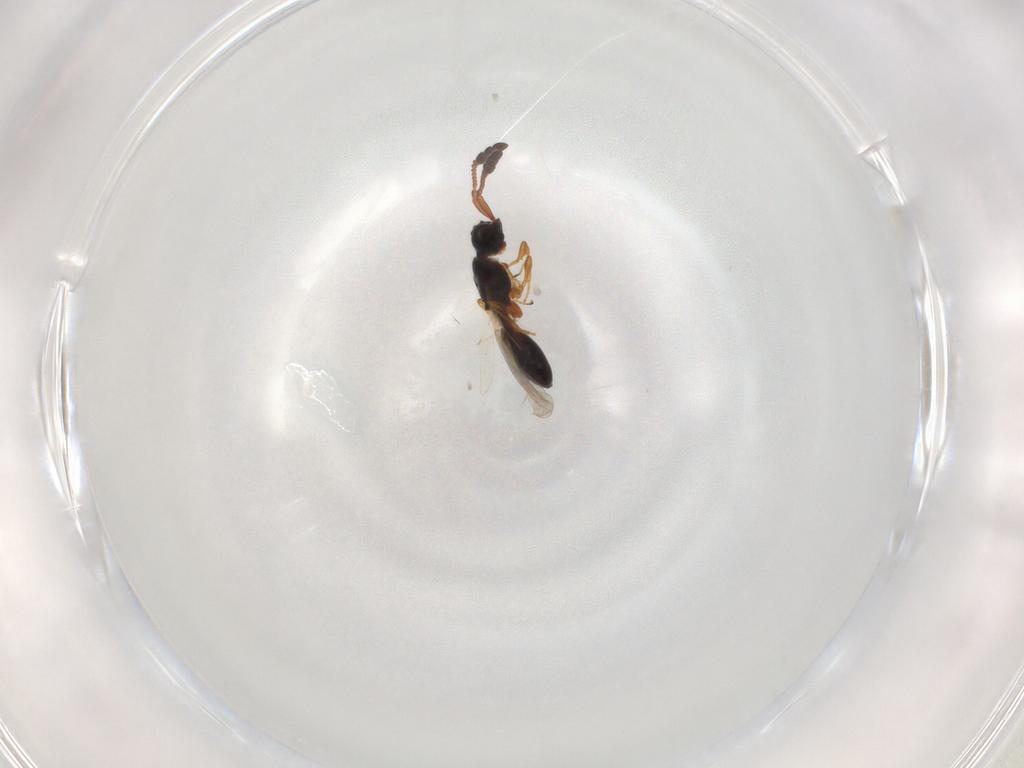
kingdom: Animalia
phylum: Arthropoda
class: Insecta
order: Hymenoptera
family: Diapriidae
